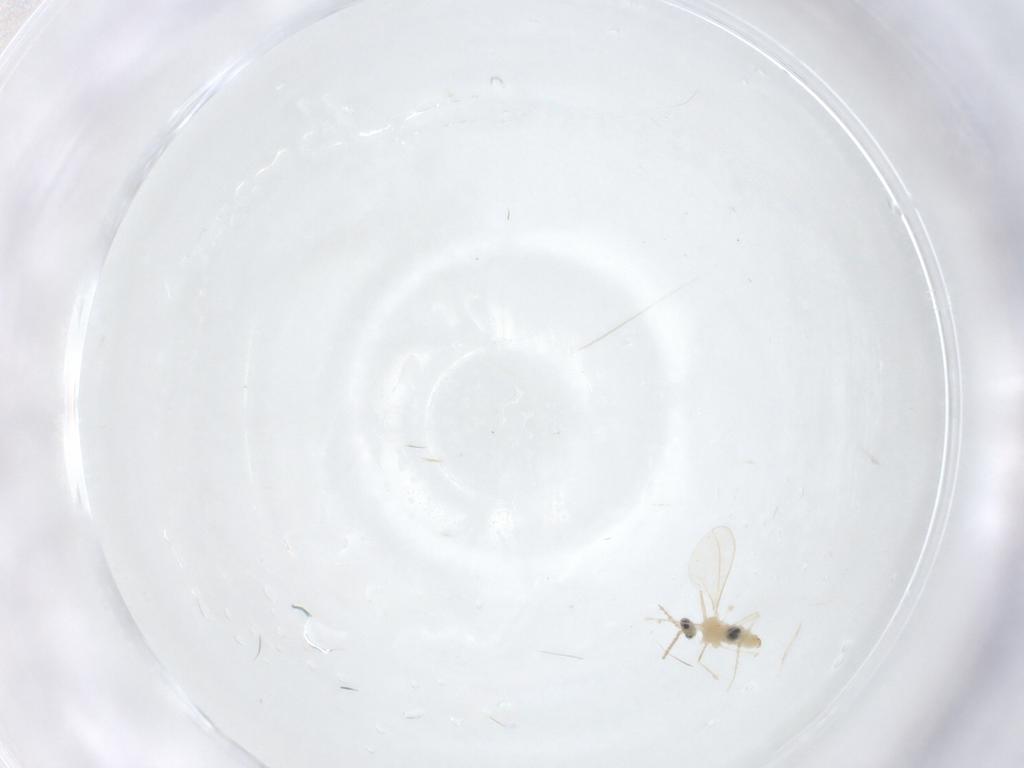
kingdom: Animalia
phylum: Arthropoda
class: Insecta
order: Diptera
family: Cecidomyiidae
